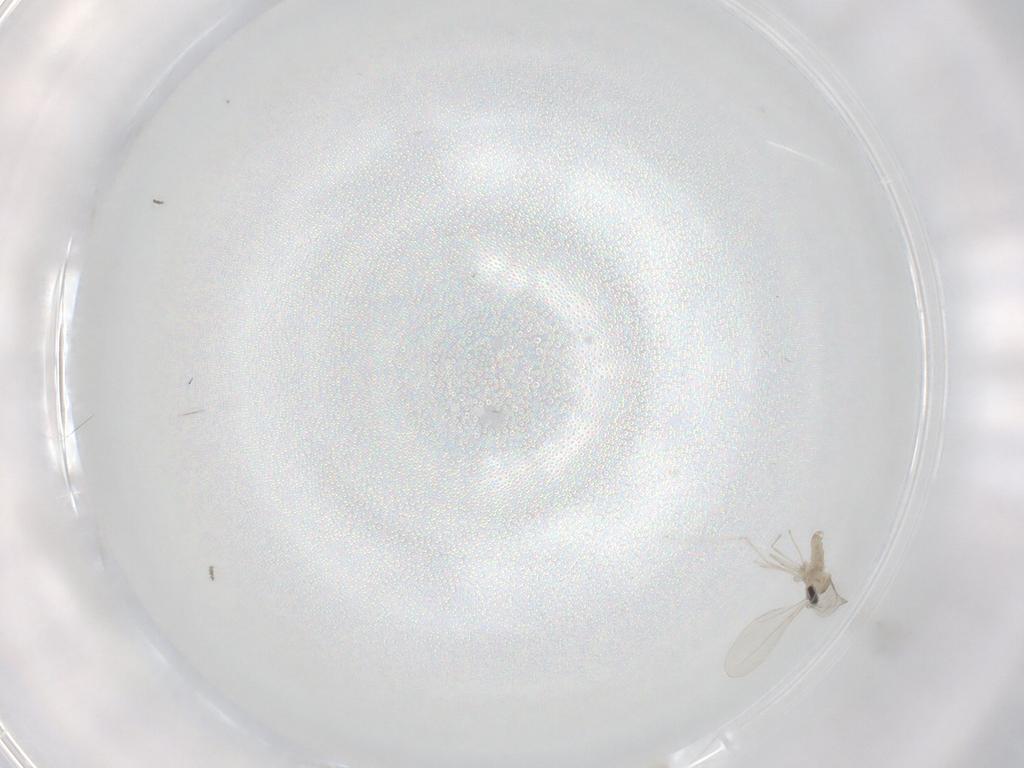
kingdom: Animalia
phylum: Arthropoda
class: Insecta
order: Diptera
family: Cecidomyiidae
